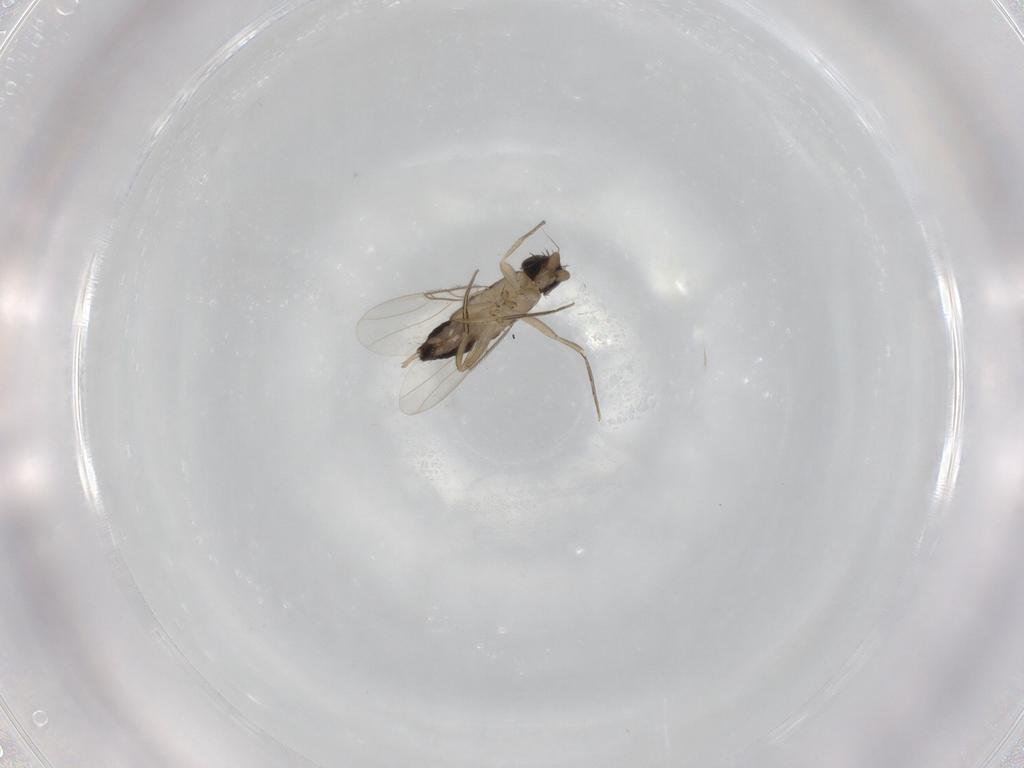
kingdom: Animalia
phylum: Arthropoda
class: Insecta
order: Diptera
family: Phoridae
